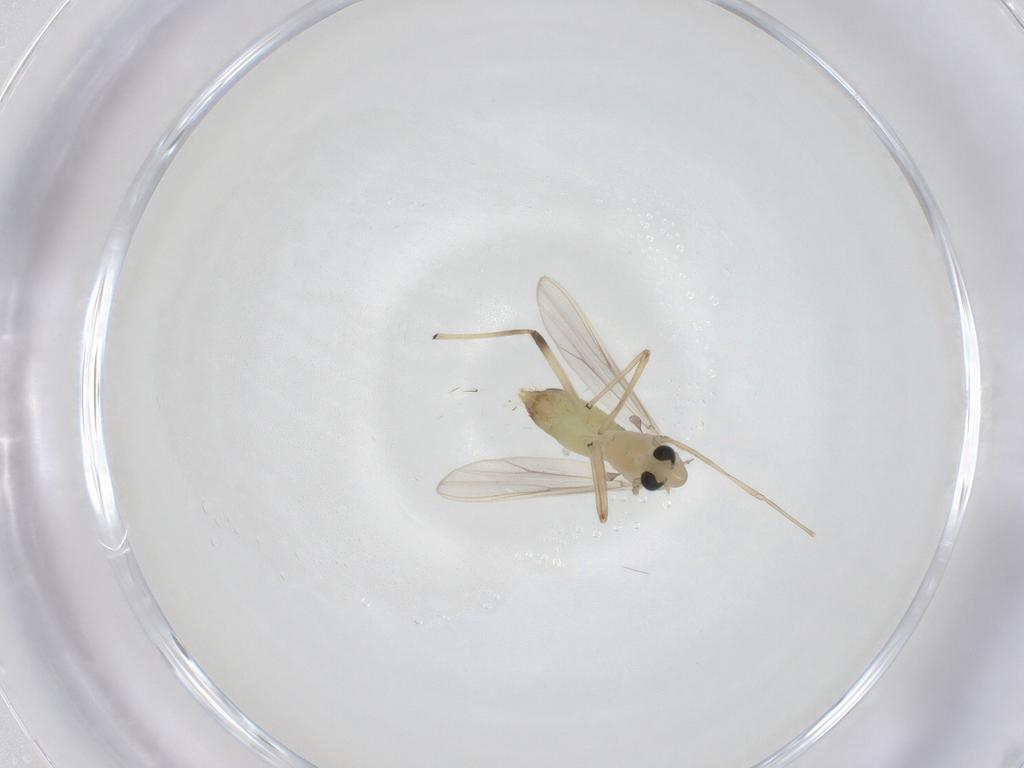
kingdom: Animalia
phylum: Arthropoda
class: Insecta
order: Diptera
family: Chironomidae
